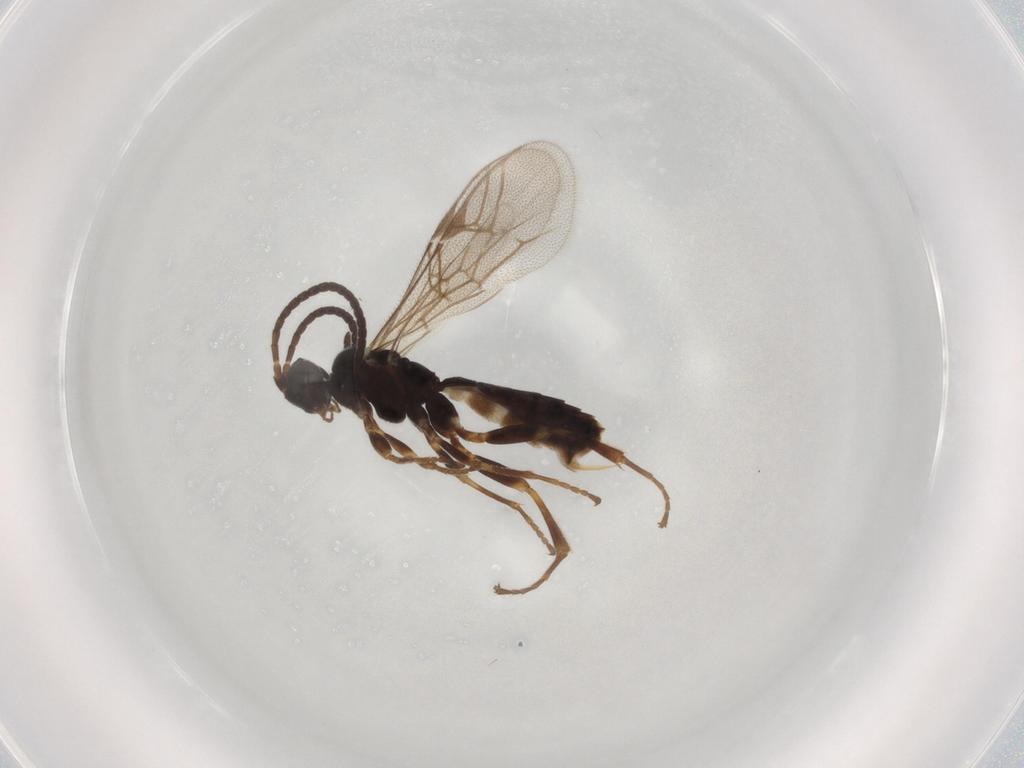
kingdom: Animalia
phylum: Arthropoda
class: Insecta
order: Hymenoptera
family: Ichneumonidae
